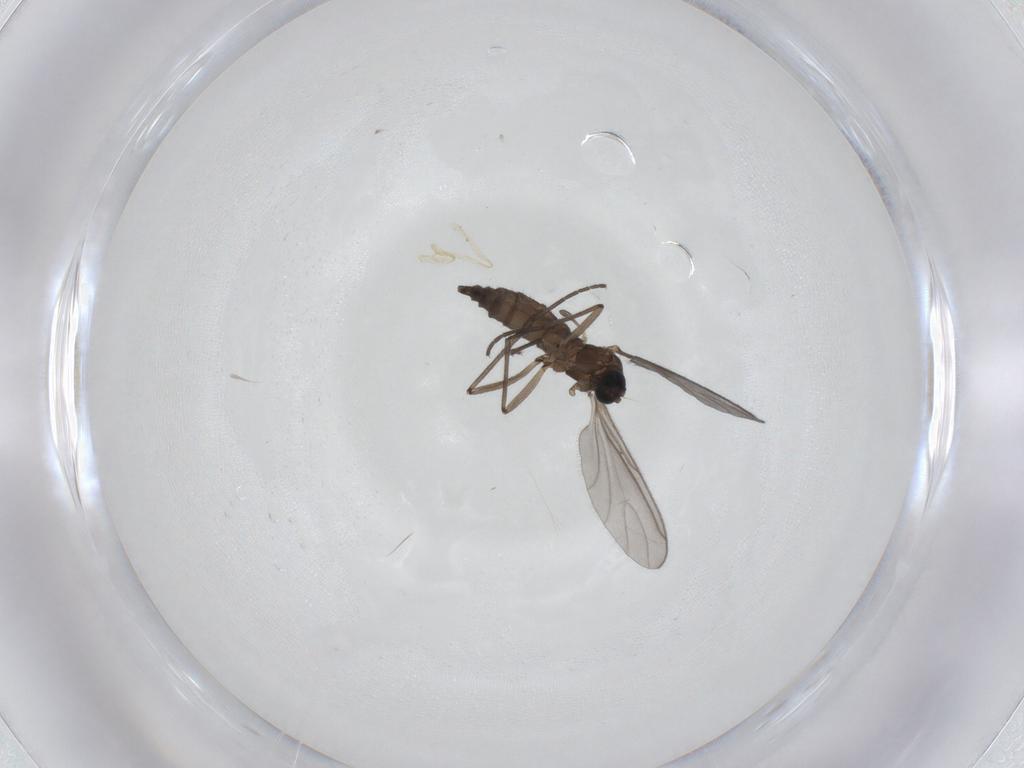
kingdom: Animalia
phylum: Arthropoda
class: Insecta
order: Diptera
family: Sciaridae
